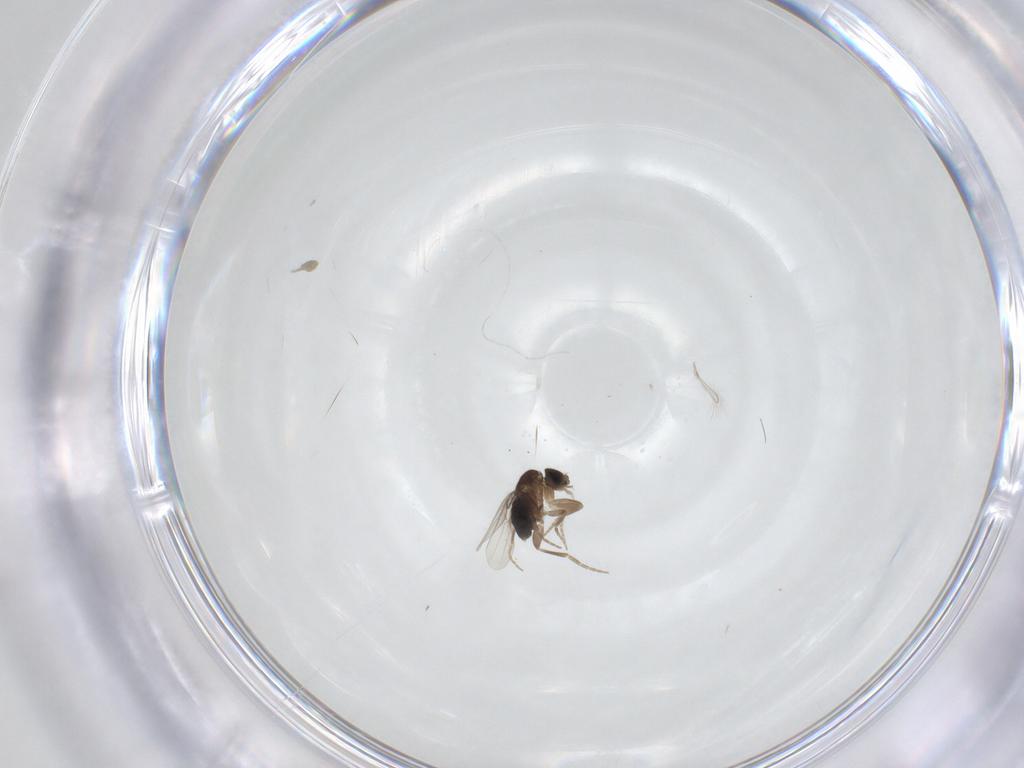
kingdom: Animalia
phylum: Arthropoda
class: Insecta
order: Diptera
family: Phoridae
